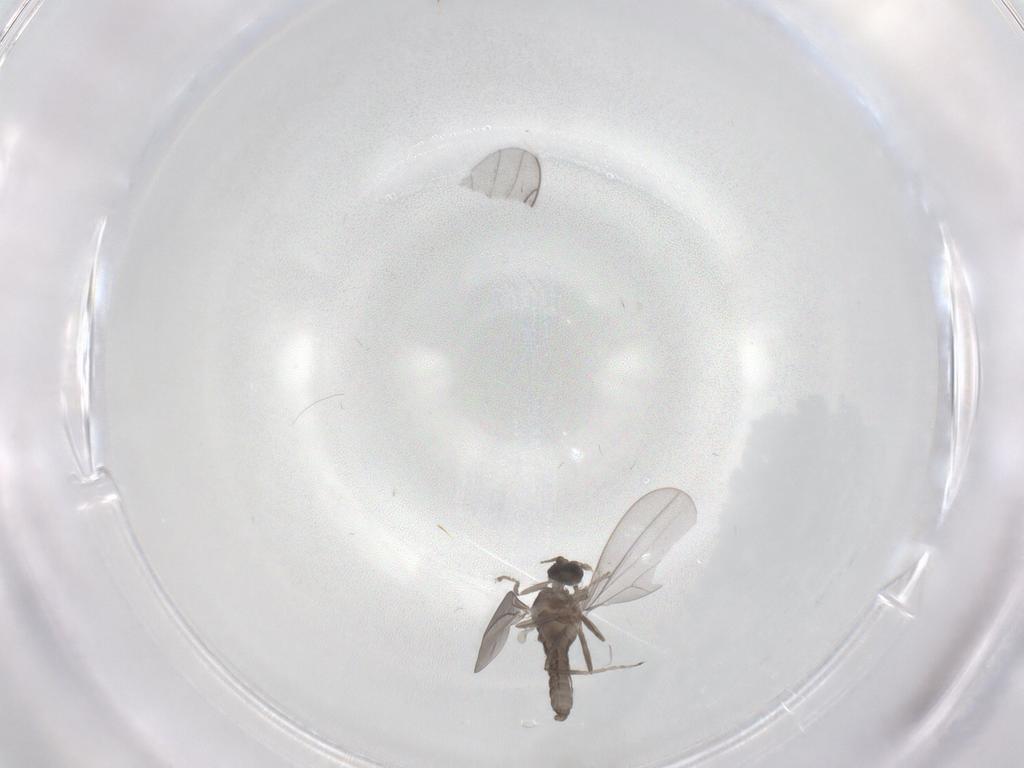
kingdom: Animalia
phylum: Arthropoda
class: Insecta
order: Diptera
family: Cecidomyiidae
